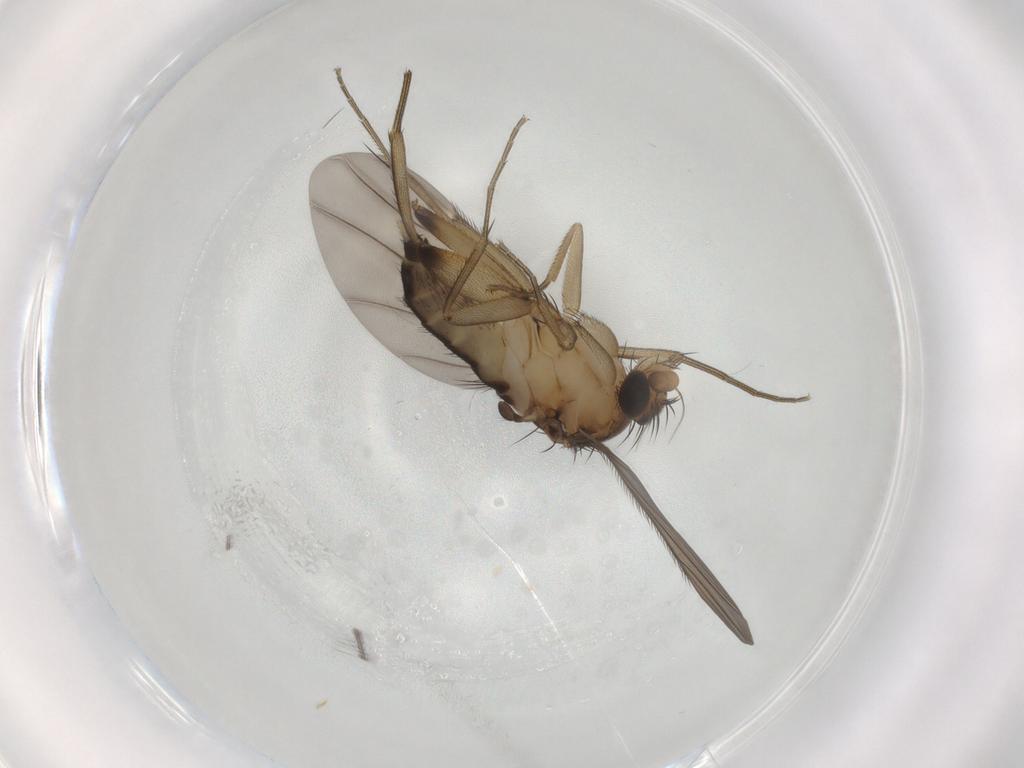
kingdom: Animalia
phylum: Arthropoda
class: Insecta
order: Diptera
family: Phoridae
